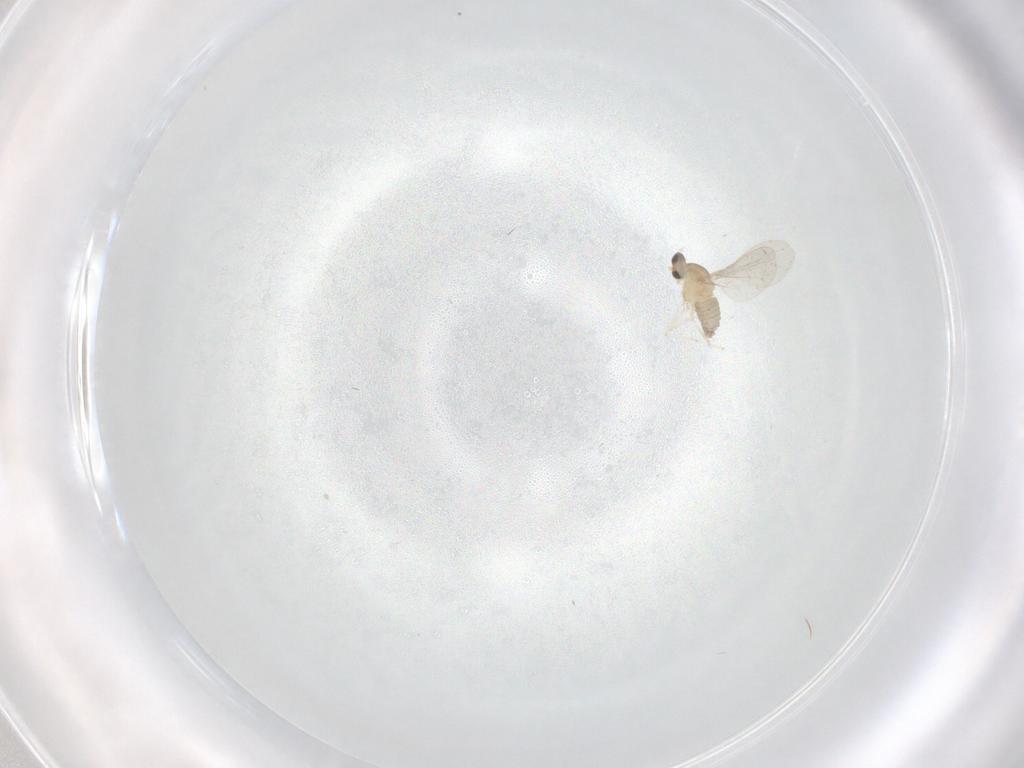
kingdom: Animalia
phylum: Arthropoda
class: Insecta
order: Diptera
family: Cecidomyiidae
